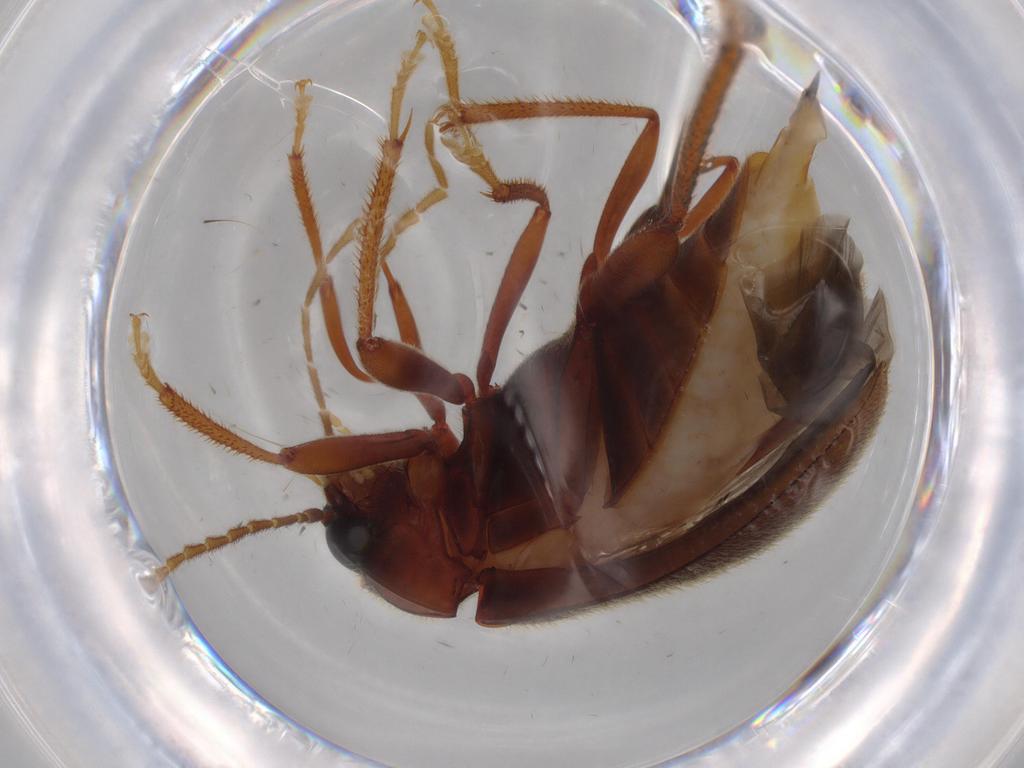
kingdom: Animalia
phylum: Arthropoda
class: Insecta
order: Coleoptera
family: Ptilodactylidae
